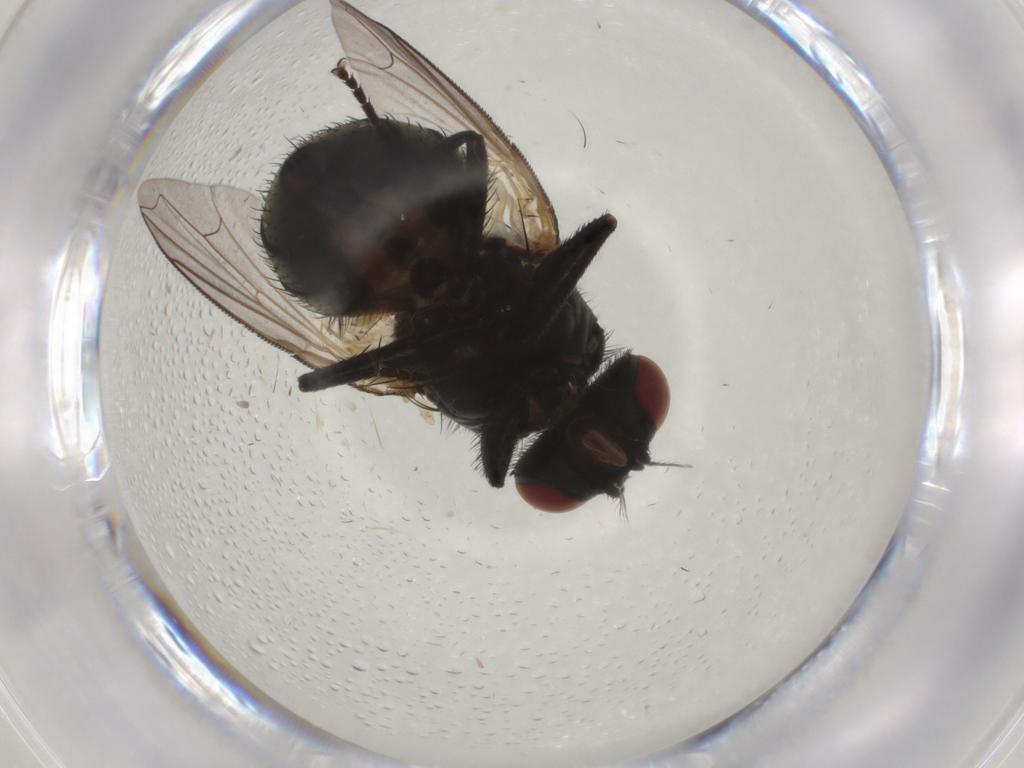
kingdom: Animalia
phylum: Arthropoda
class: Insecta
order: Diptera
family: Muscidae
